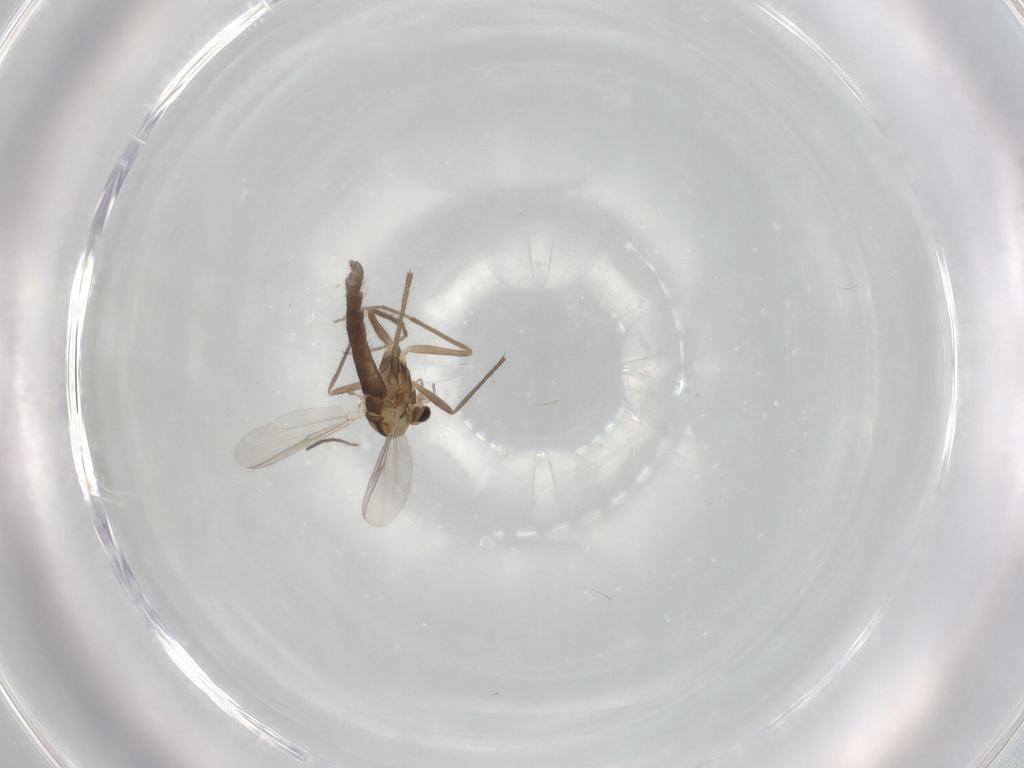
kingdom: Animalia
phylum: Arthropoda
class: Insecta
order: Diptera
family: Chironomidae
